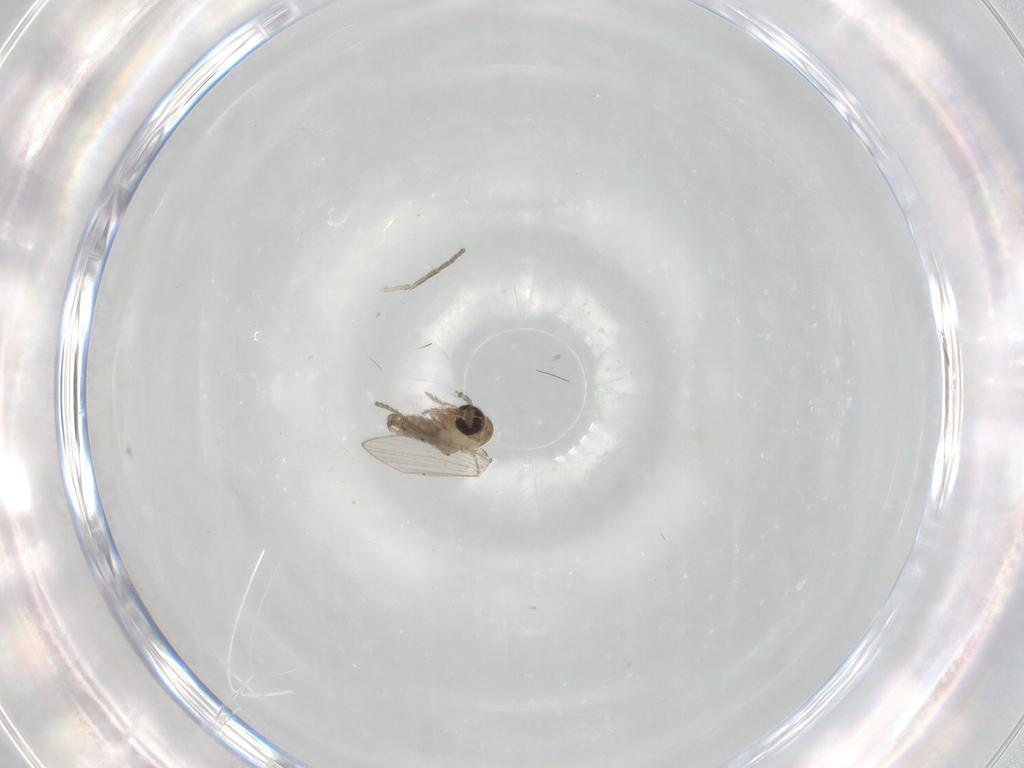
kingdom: Animalia
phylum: Arthropoda
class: Insecta
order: Diptera
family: Psychodidae
